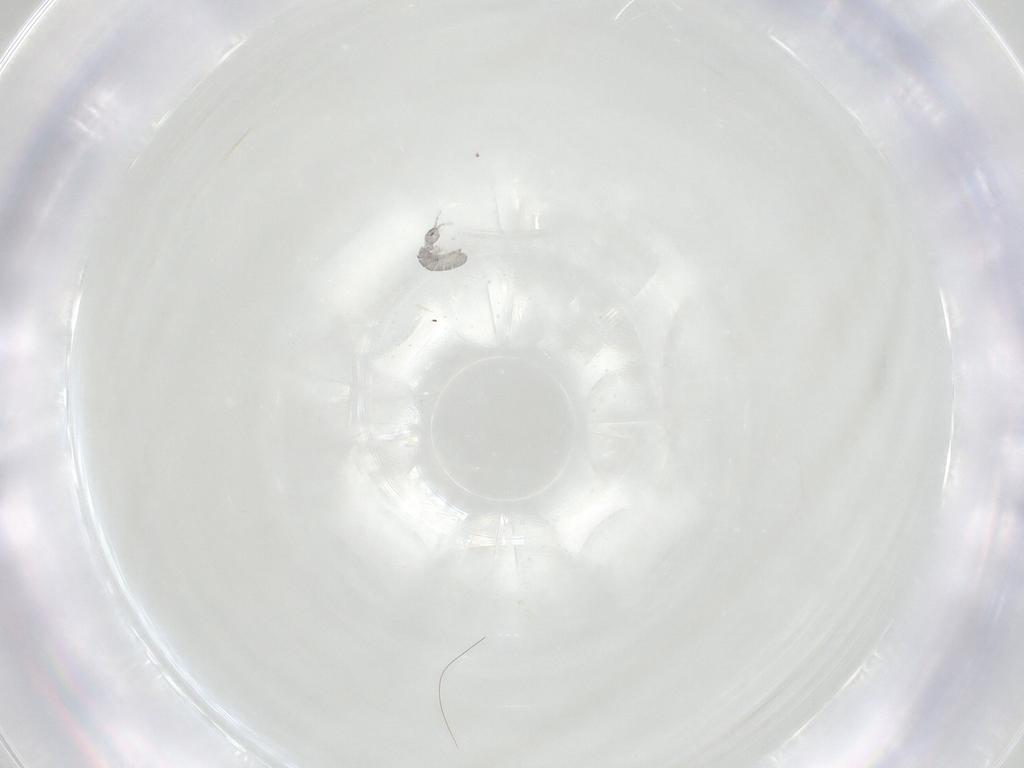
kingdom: Animalia
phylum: Arthropoda
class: Collembola
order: Entomobryomorpha
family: Isotomidae
